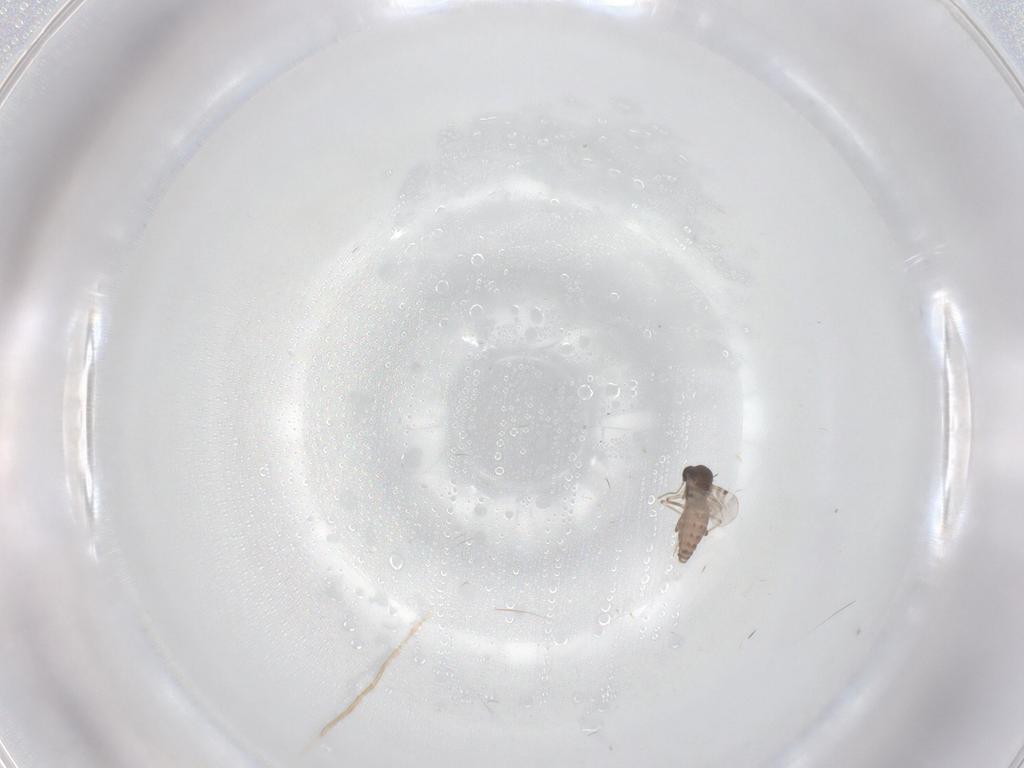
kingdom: Animalia
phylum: Arthropoda
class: Insecta
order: Diptera
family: Cecidomyiidae
